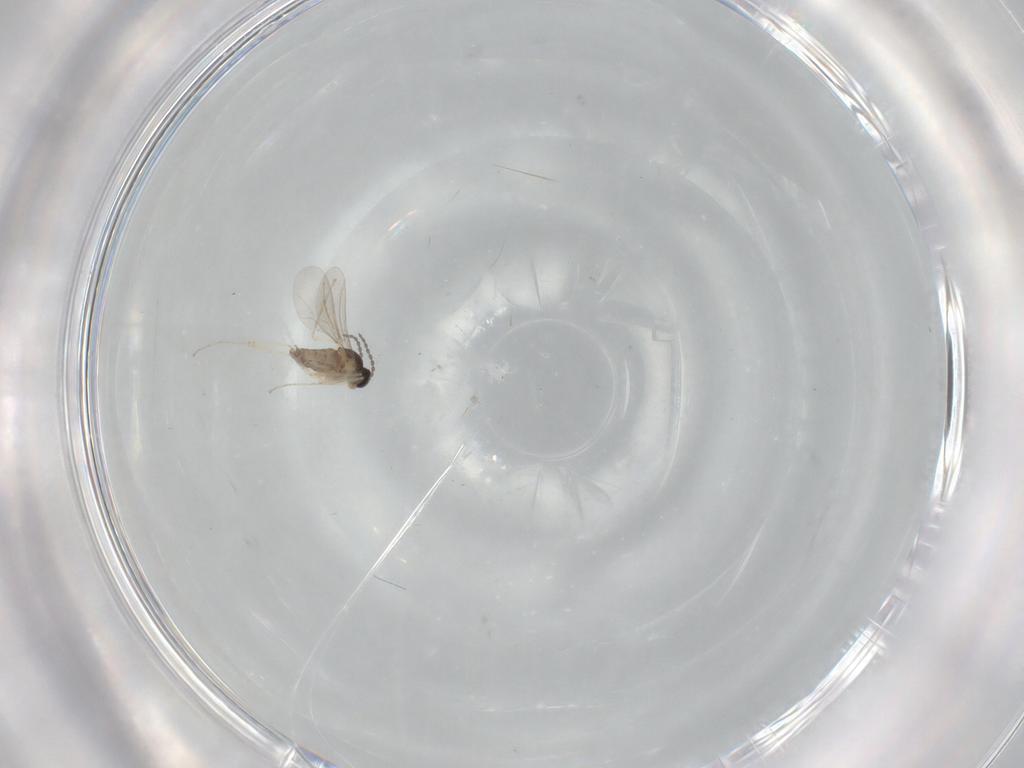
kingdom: Animalia
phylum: Arthropoda
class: Insecta
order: Diptera
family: Cecidomyiidae
